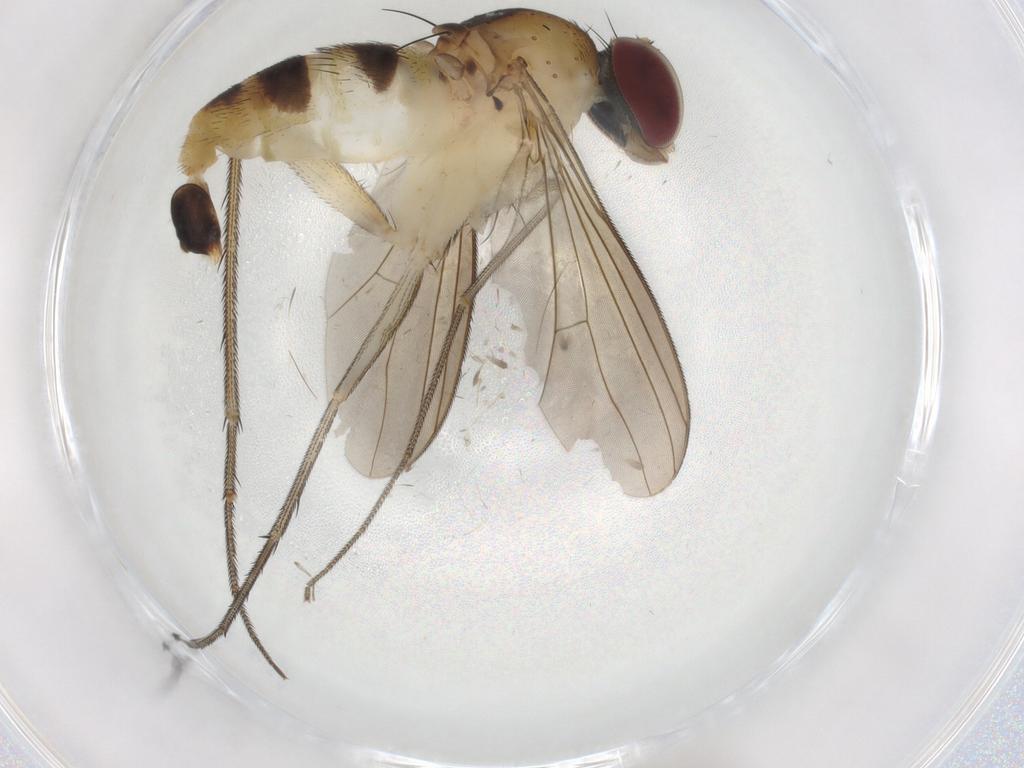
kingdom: Animalia
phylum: Arthropoda
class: Insecta
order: Diptera
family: Dolichopodidae
